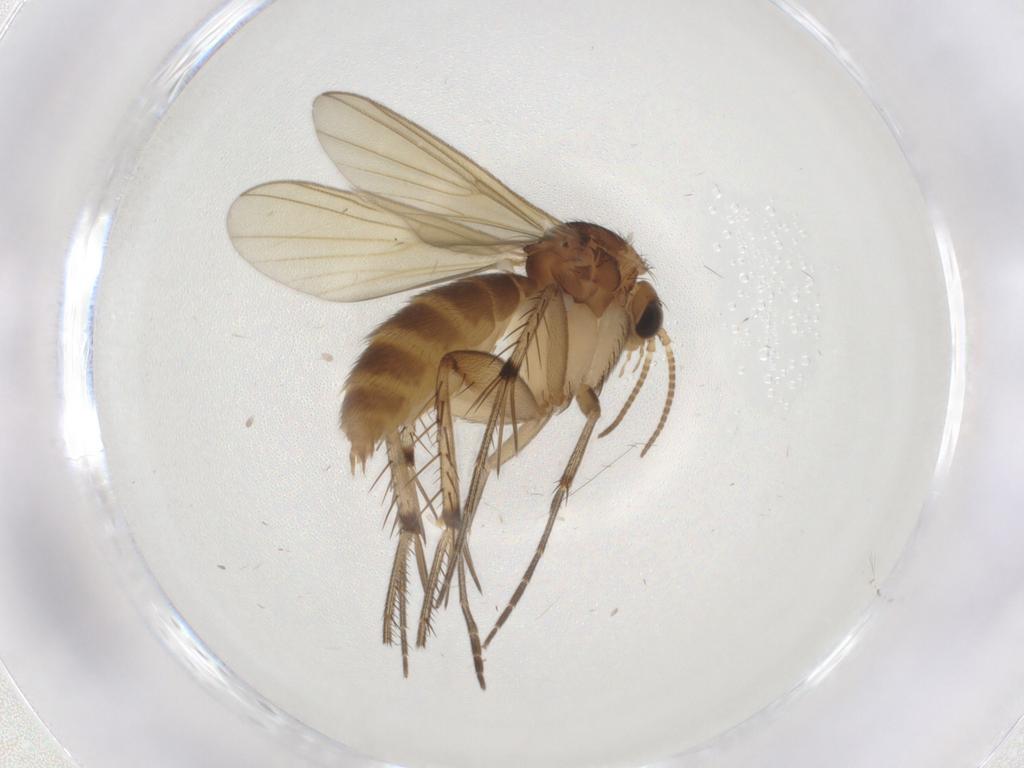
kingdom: Animalia
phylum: Arthropoda
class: Insecta
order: Diptera
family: Mycetophilidae
